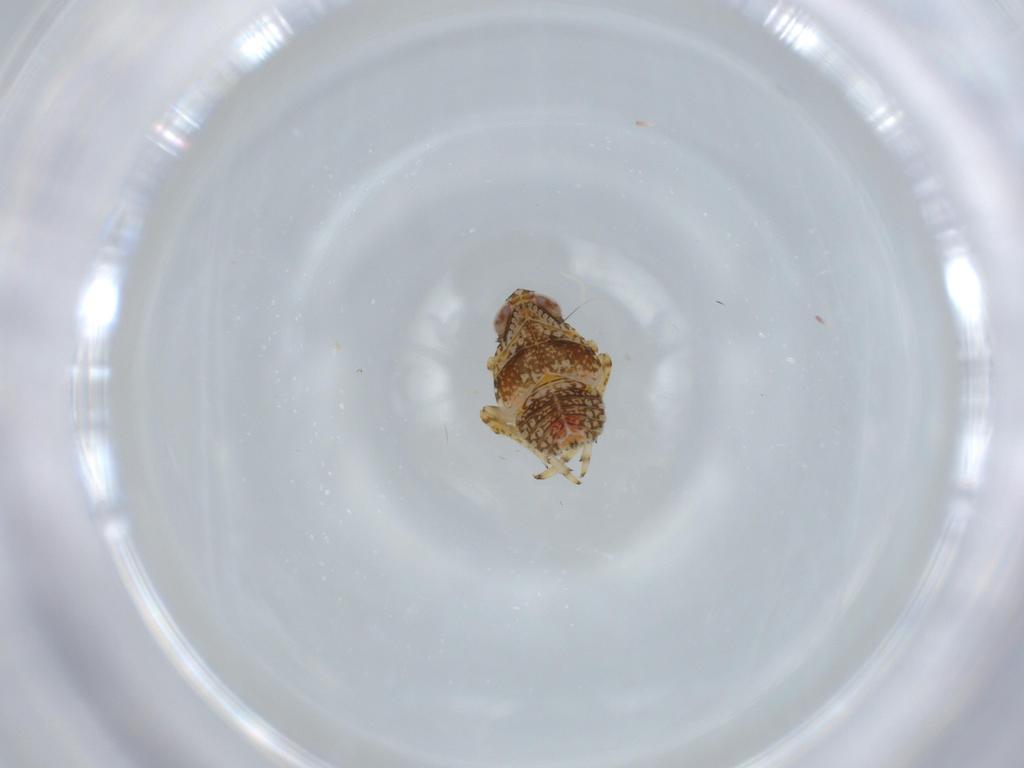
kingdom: Animalia
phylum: Arthropoda
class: Insecta
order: Hemiptera
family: Issidae
